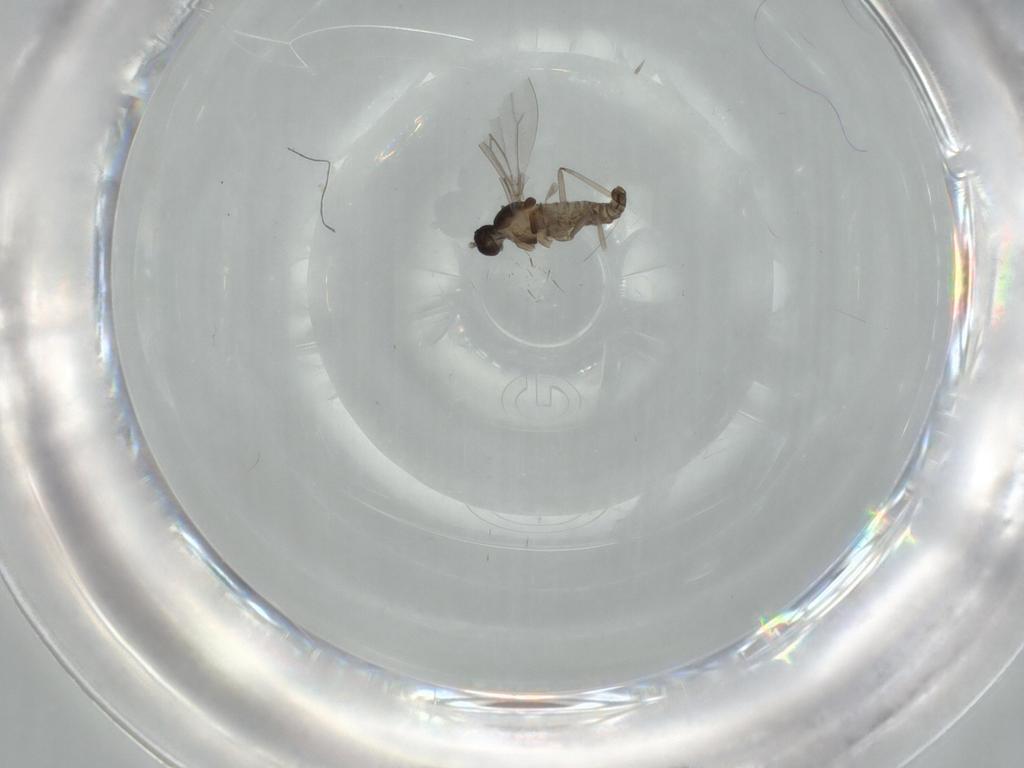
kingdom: Animalia
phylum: Arthropoda
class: Insecta
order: Diptera
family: Cecidomyiidae
